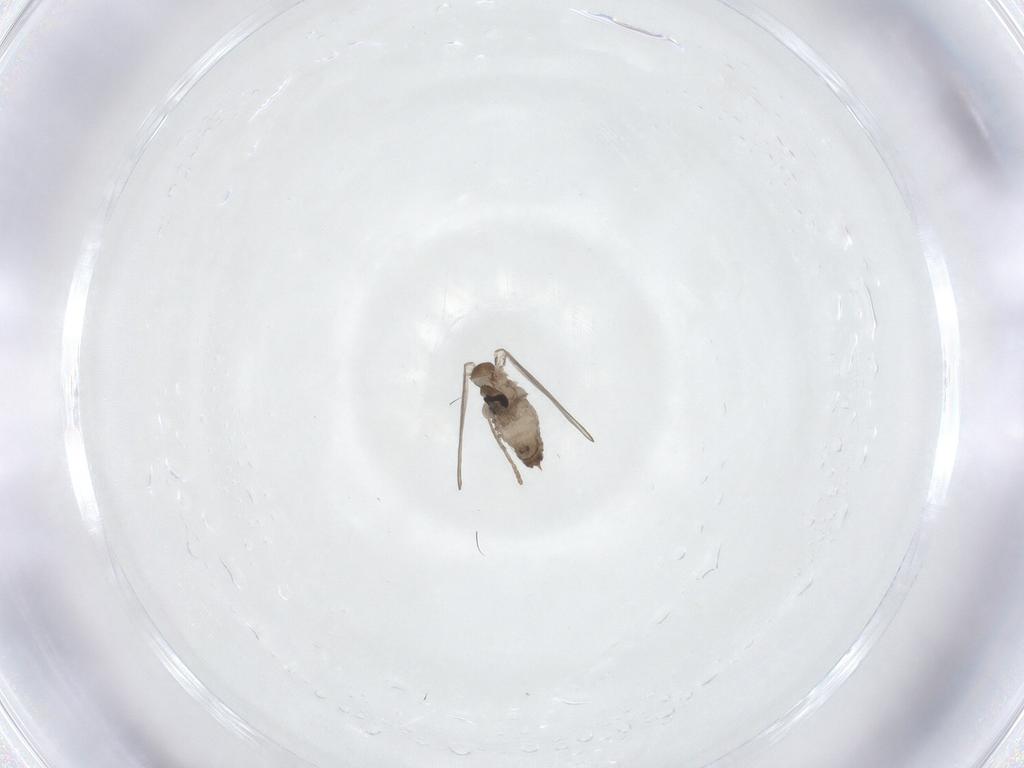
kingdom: Animalia
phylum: Arthropoda
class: Insecta
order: Diptera
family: Psychodidae
